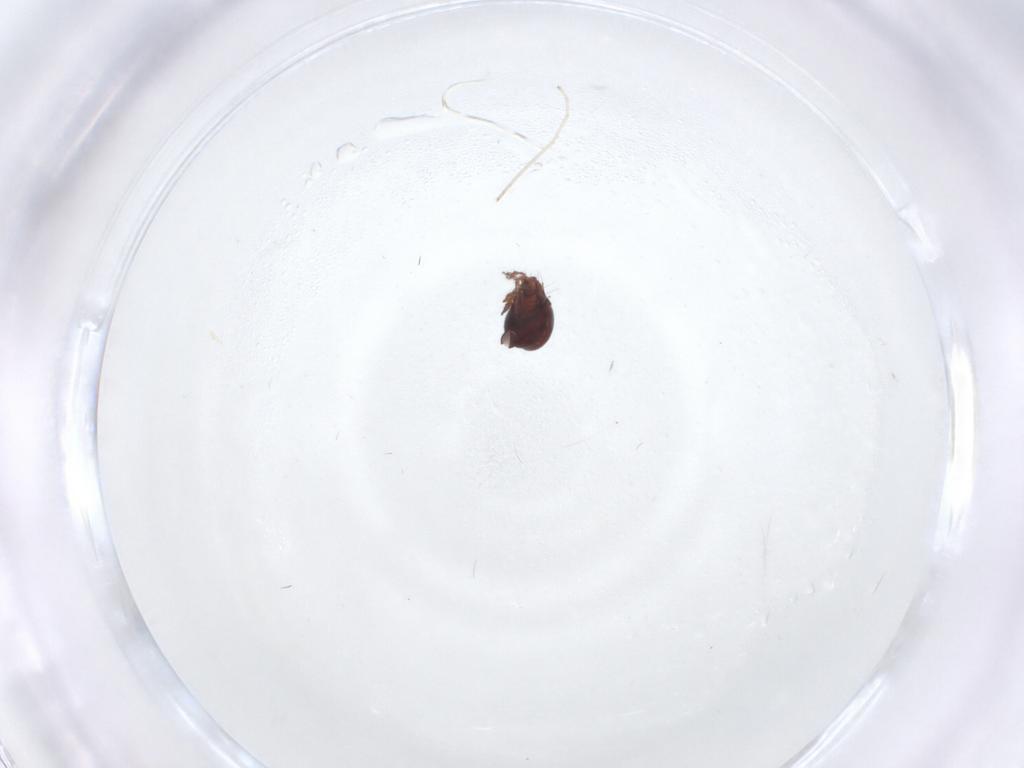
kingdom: Animalia
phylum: Arthropoda
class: Arachnida
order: Sarcoptiformes
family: Ceratozetidae
